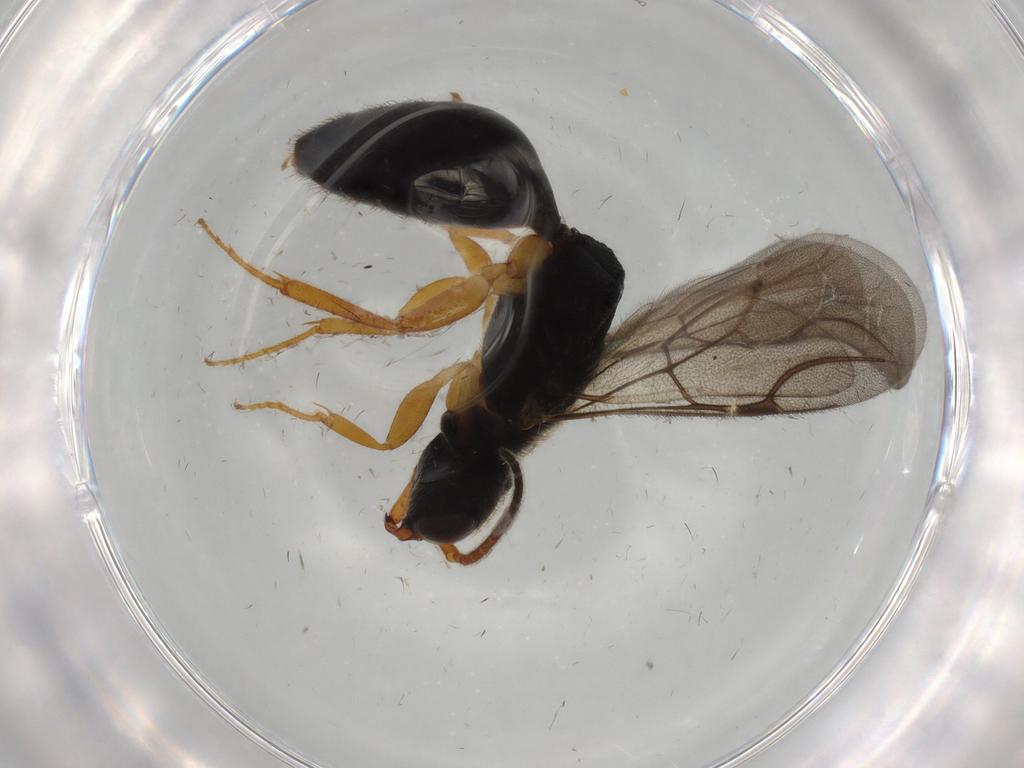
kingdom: Animalia
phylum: Arthropoda
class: Insecta
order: Hymenoptera
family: Bethylidae
